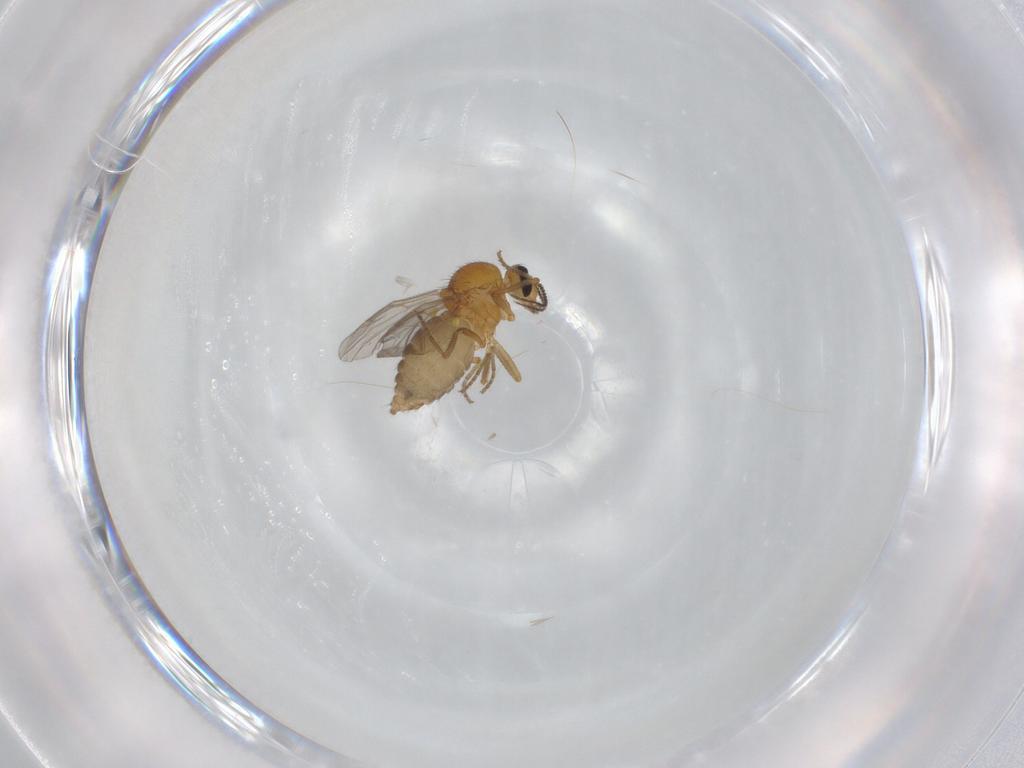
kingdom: Animalia
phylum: Arthropoda
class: Insecta
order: Diptera
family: Ceratopogonidae
